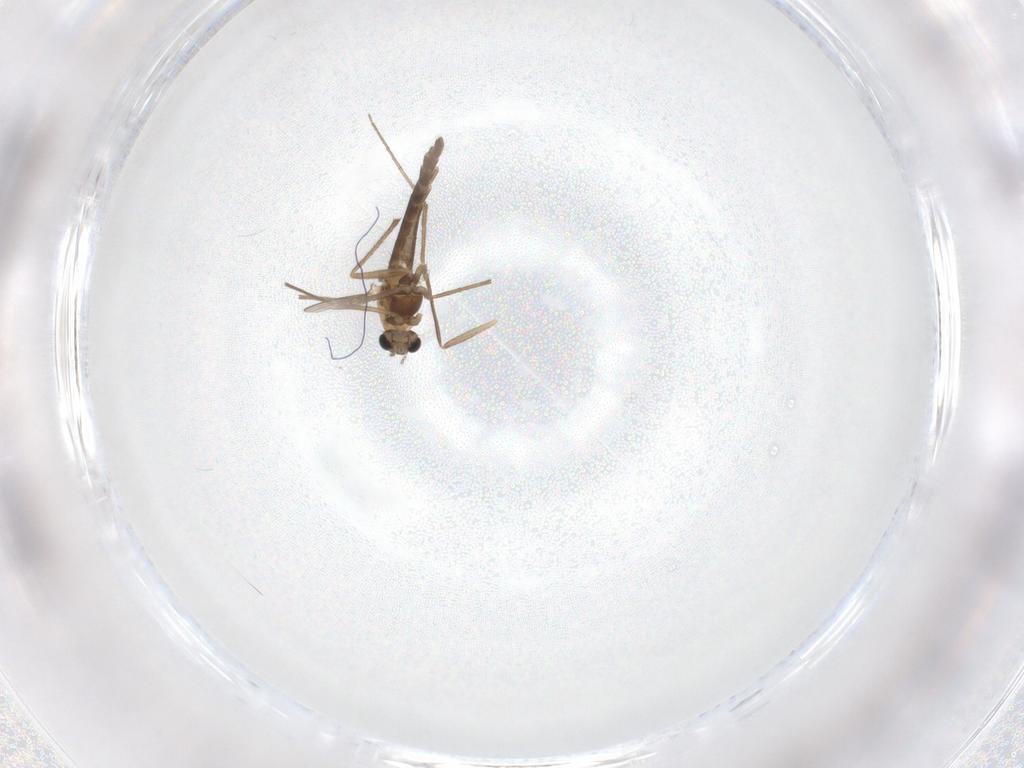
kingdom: Animalia
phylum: Arthropoda
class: Insecta
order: Diptera
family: Chironomidae
